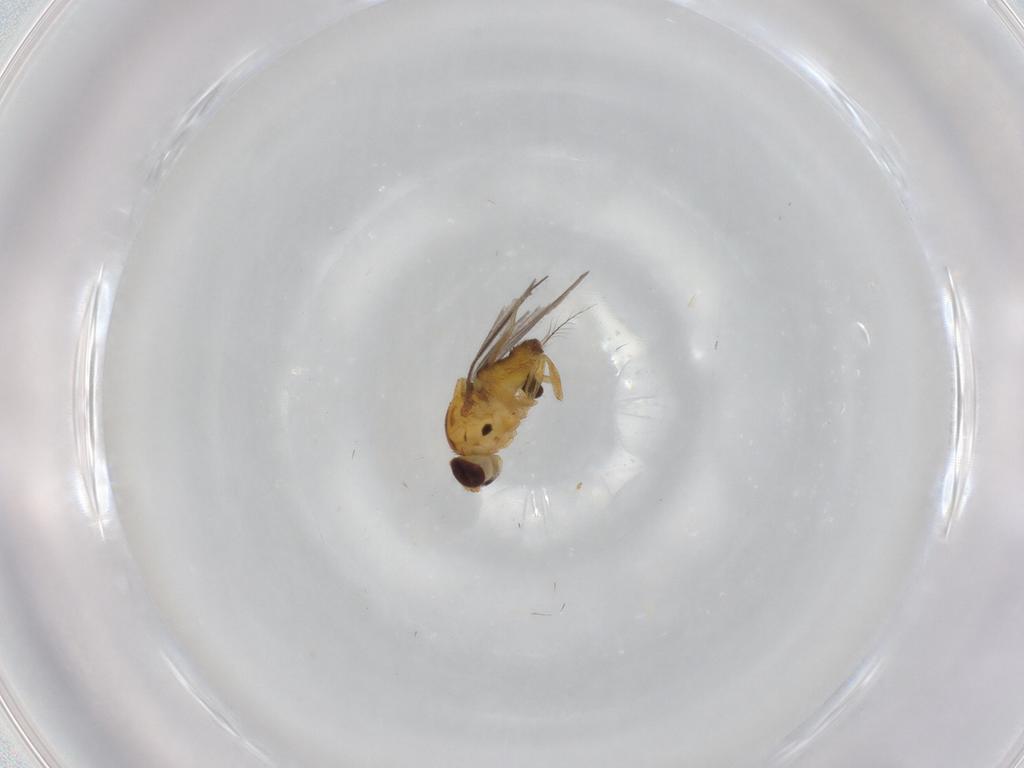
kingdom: Animalia
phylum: Arthropoda
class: Insecta
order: Diptera
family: Chloropidae
